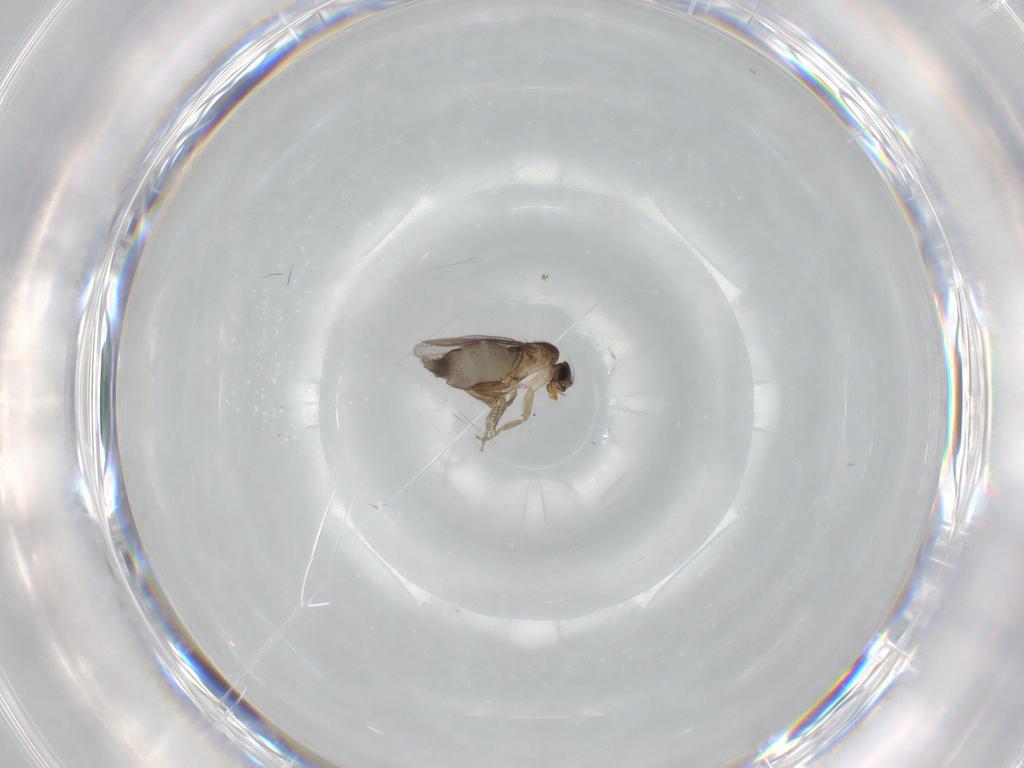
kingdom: Animalia
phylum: Arthropoda
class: Insecta
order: Diptera
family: Phoridae
